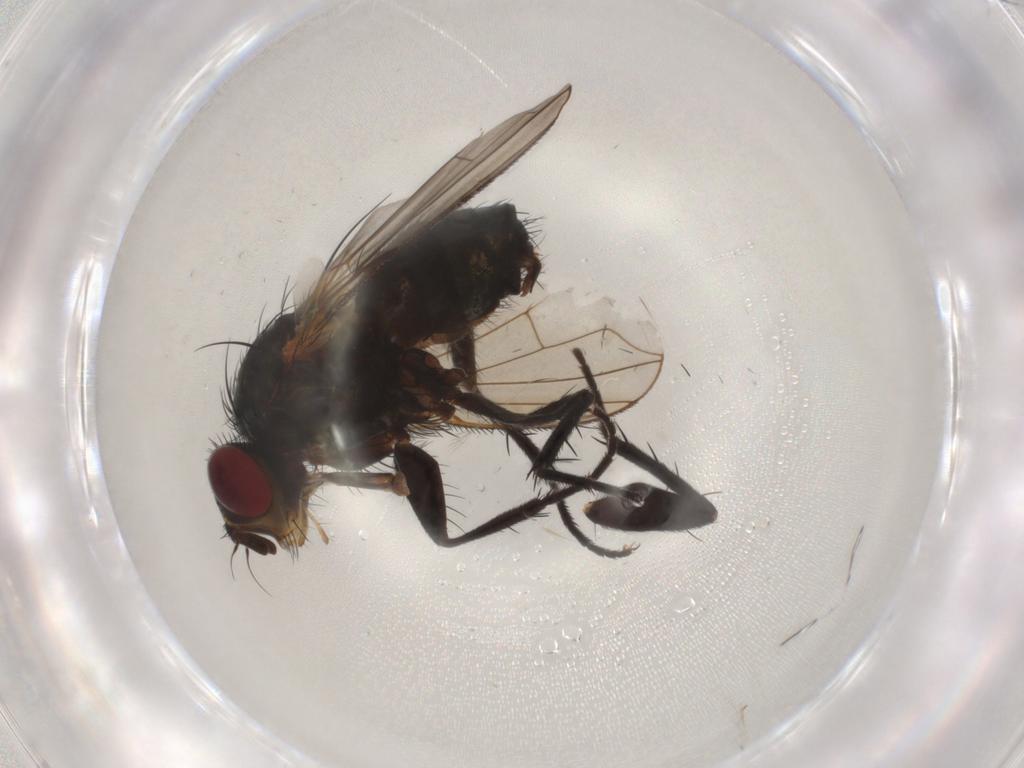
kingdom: Animalia
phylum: Arthropoda
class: Insecta
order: Diptera
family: Calliphoridae
